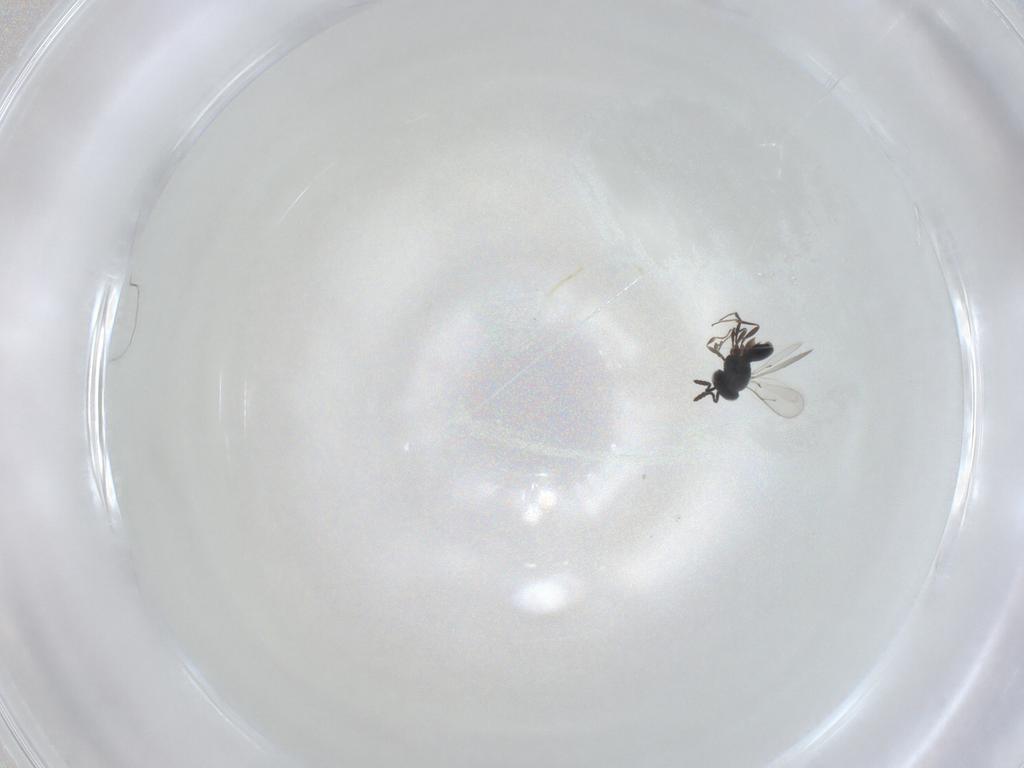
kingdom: Animalia
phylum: Arthropoda
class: Insecta
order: Hymenoptera
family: Scelionidae
